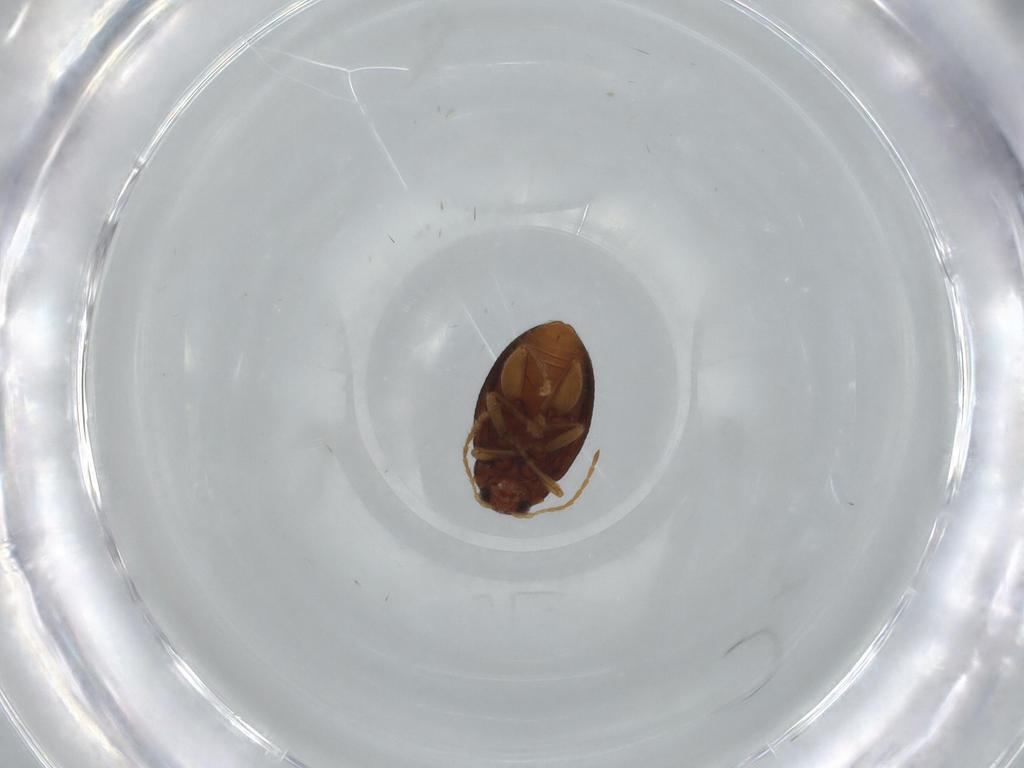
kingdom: Animalia
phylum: Arthropoda
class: Insecta
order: Coleoptera
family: Chrysomelidae
